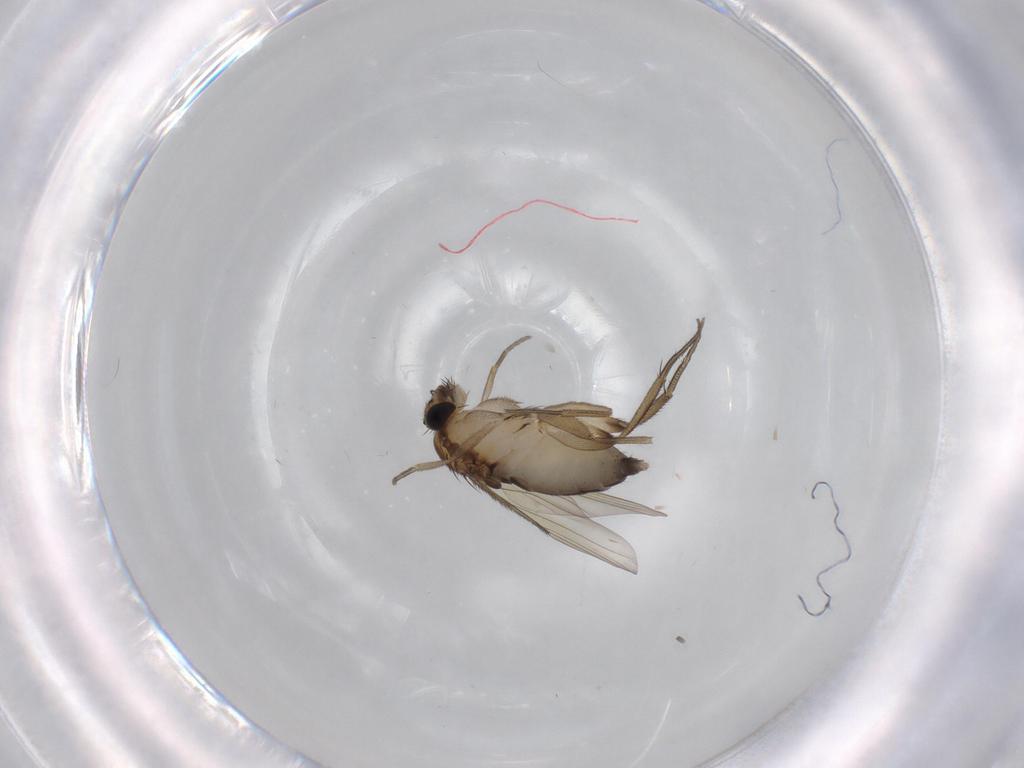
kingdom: Animalia
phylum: Arthropoda
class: Insecta
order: Diptera
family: Phoridae
